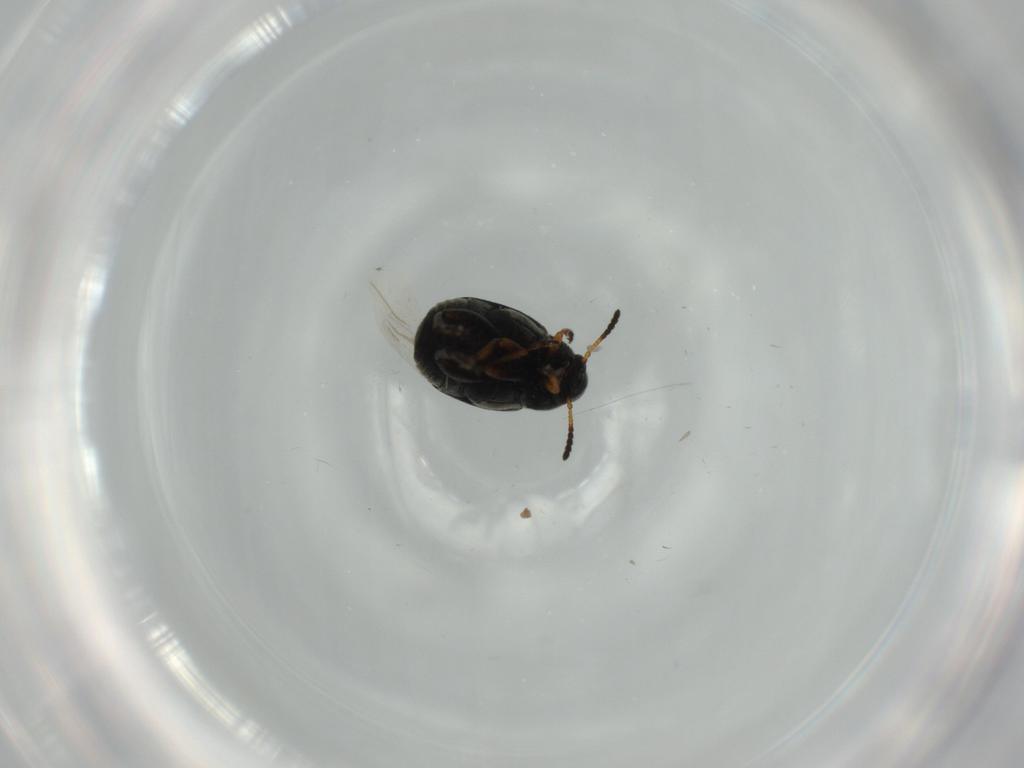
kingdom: Animalia
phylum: Arthropoda
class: Insecta
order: Coleoptera
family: Chrysomelidae
